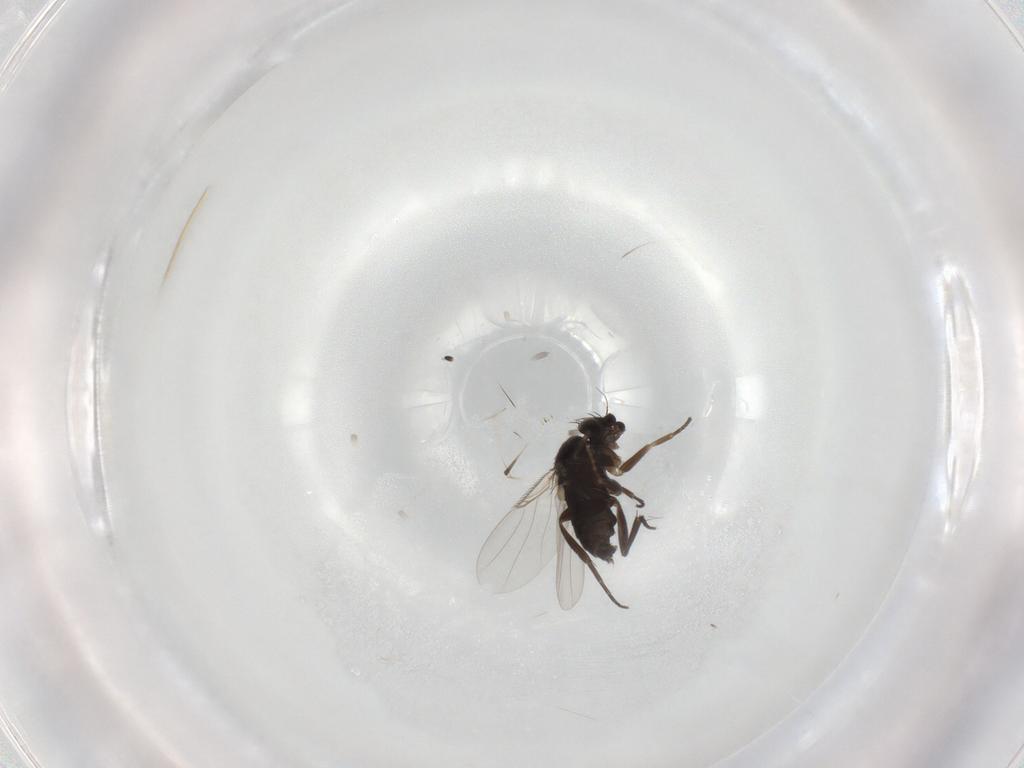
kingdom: Animalia
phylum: Arthropoda
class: Insecta
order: Diptera
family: Phoridae
